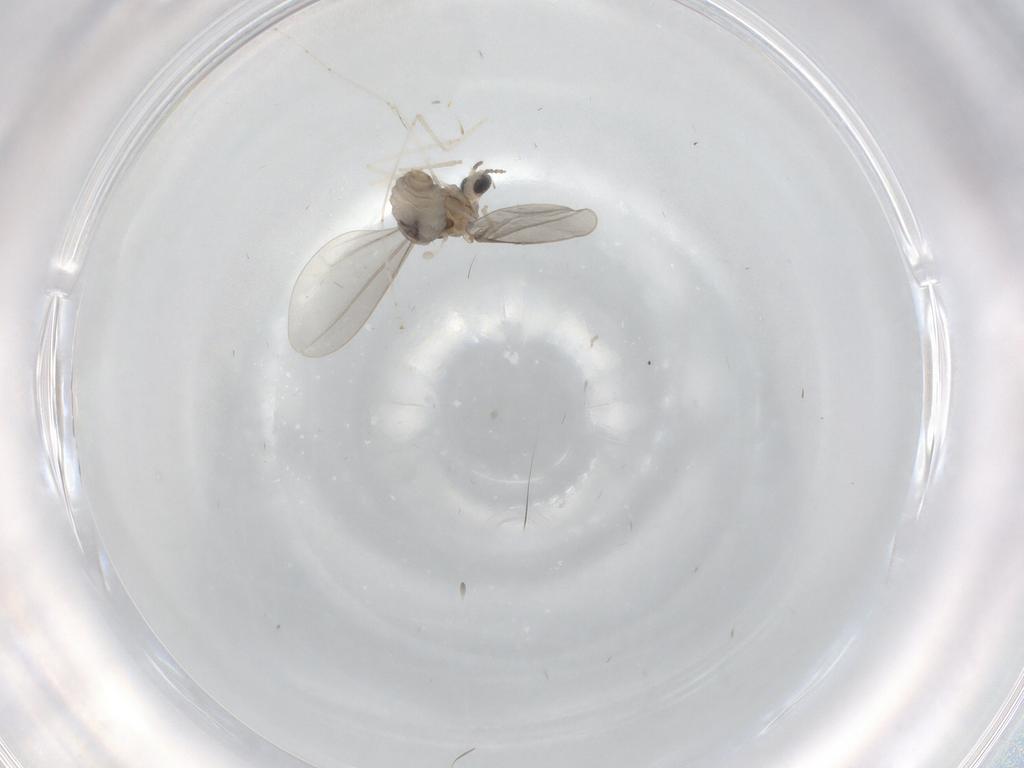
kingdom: Animalia
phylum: Arthropoda
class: Insecta
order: Diptera
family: Cecidomyiidae
